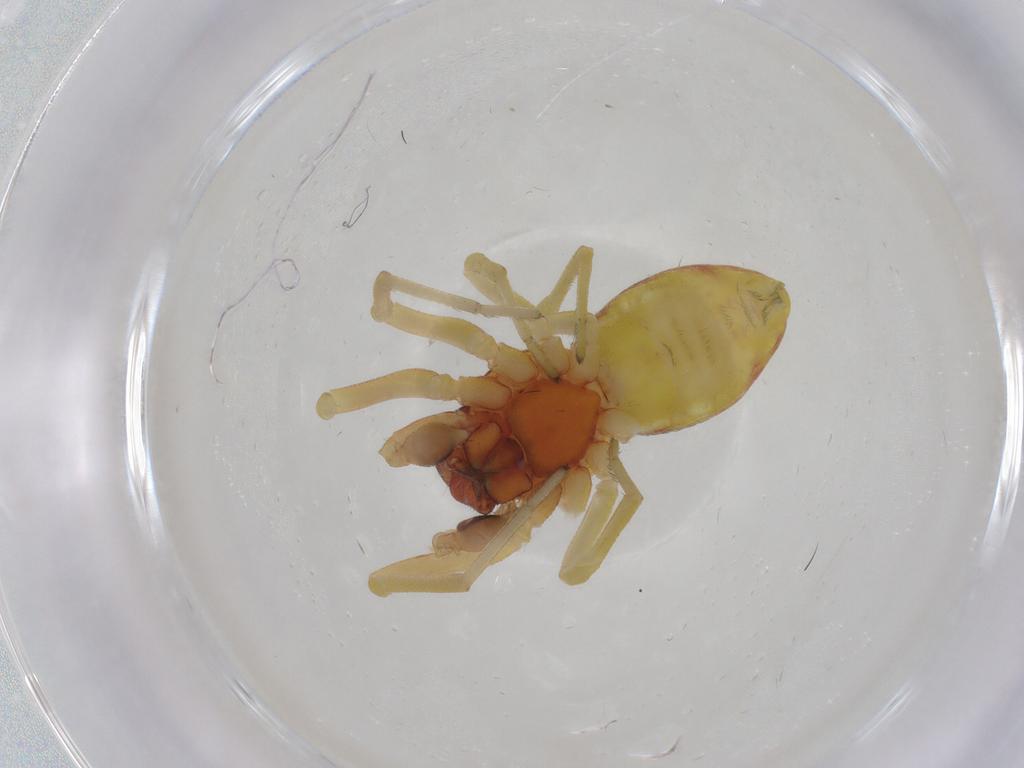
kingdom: Animalia
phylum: Arthropoda
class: Arachnida
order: Araneae
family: Dictynidae
